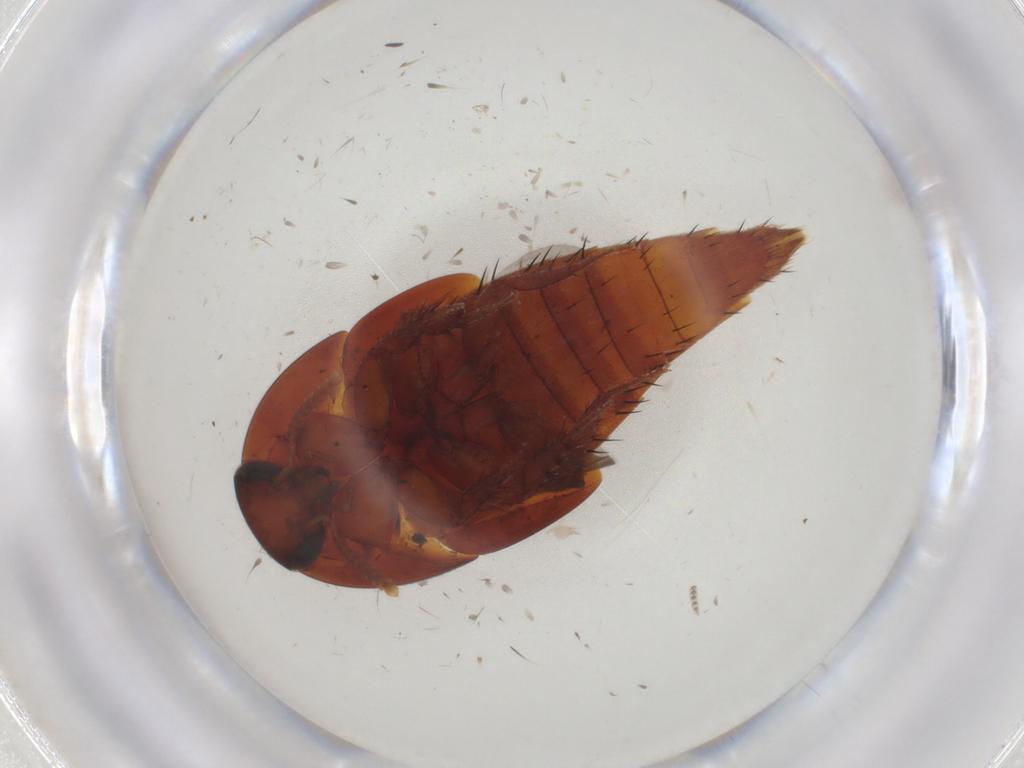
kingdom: Animalia
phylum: Arthropoda
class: Insecta
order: Coleoptera
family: Staphylinidae
